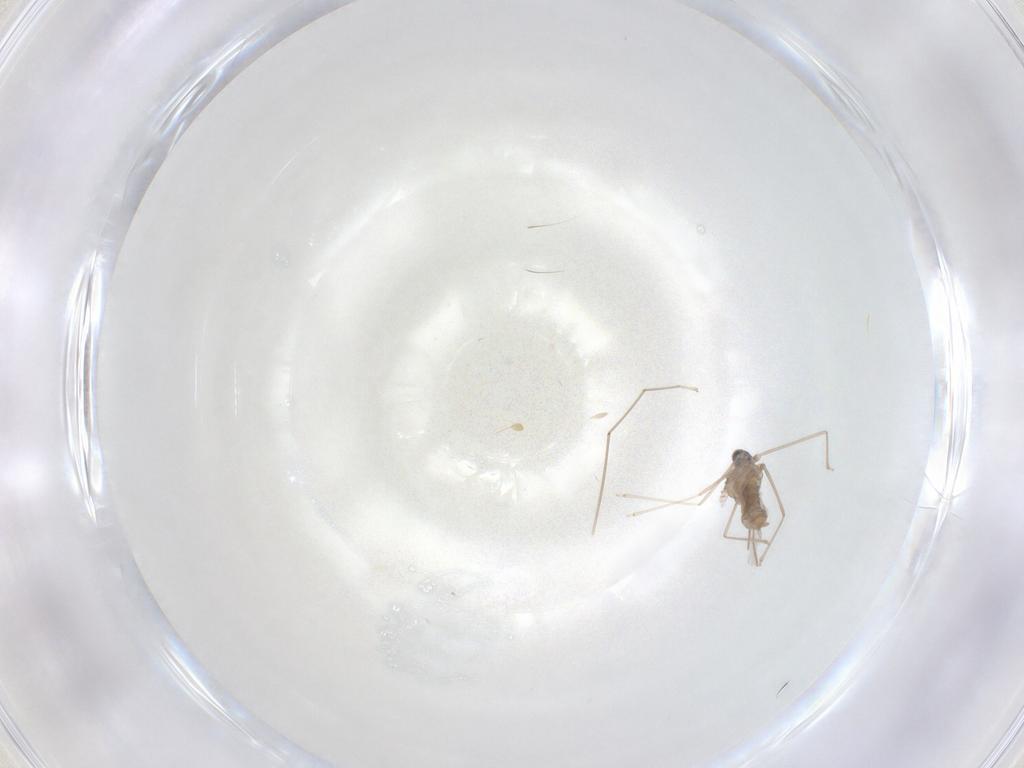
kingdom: Animalia
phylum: Arthropoda
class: Insecta
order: Diptera
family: Cecidomyiidae
